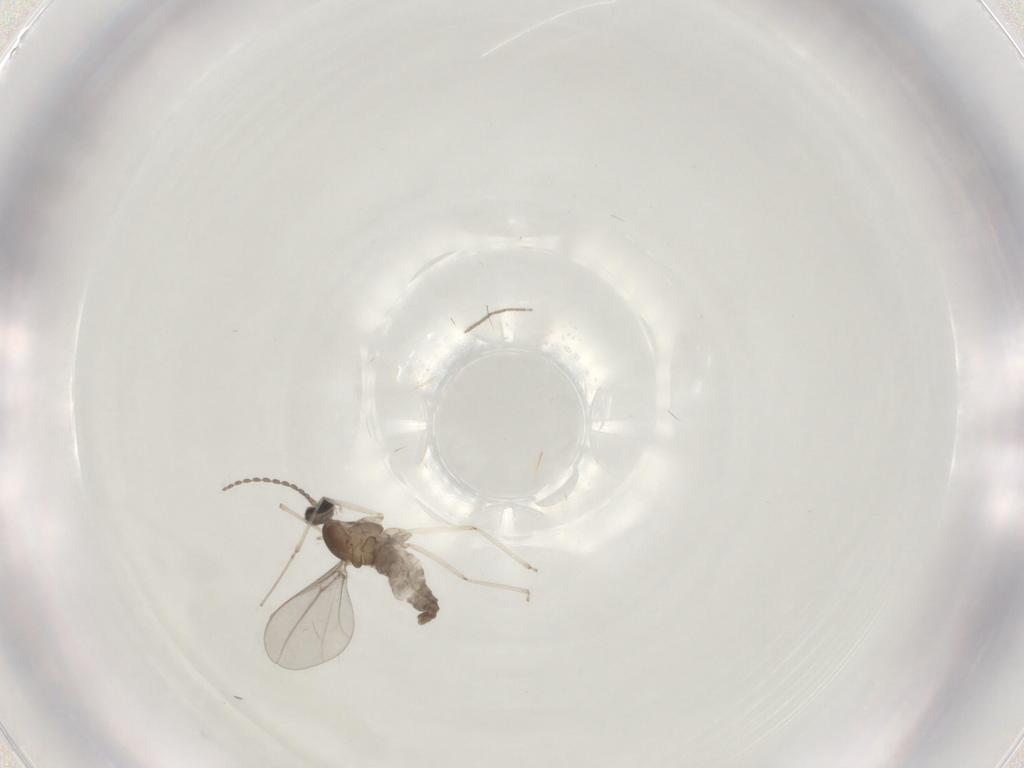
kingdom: Animalia
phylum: Arthropoda
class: Insecta
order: Diptera
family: Cecidomyiidae
